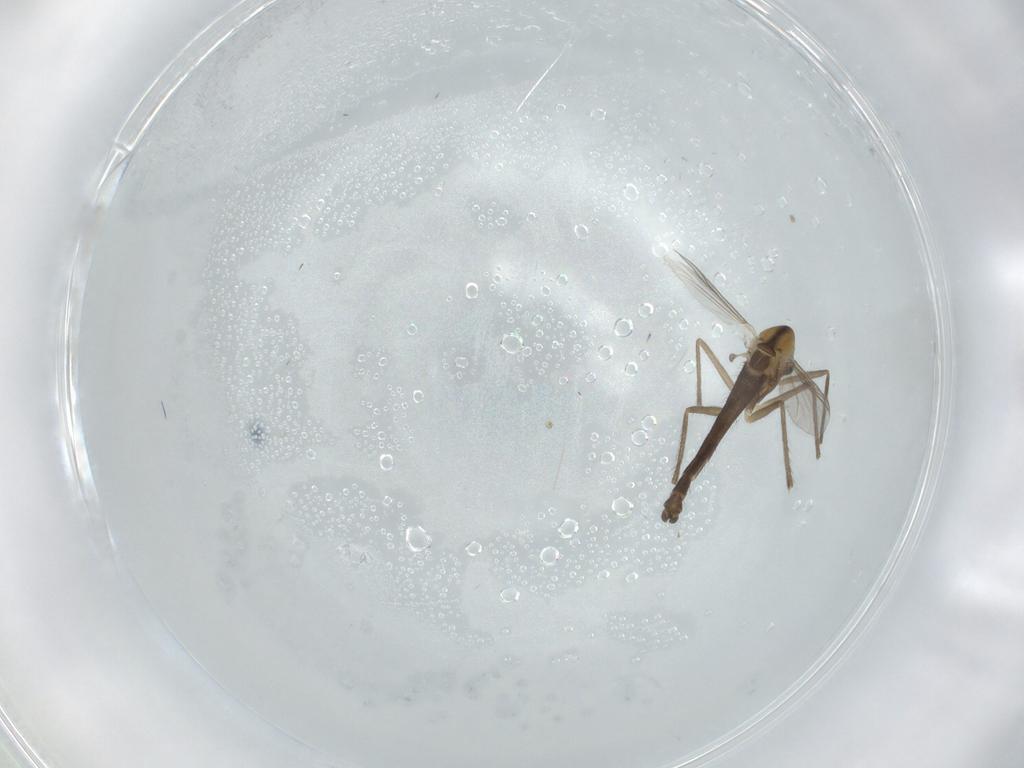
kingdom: Animalia
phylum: Arthropoda
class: Insecta
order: Diptera
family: Chironomidae
